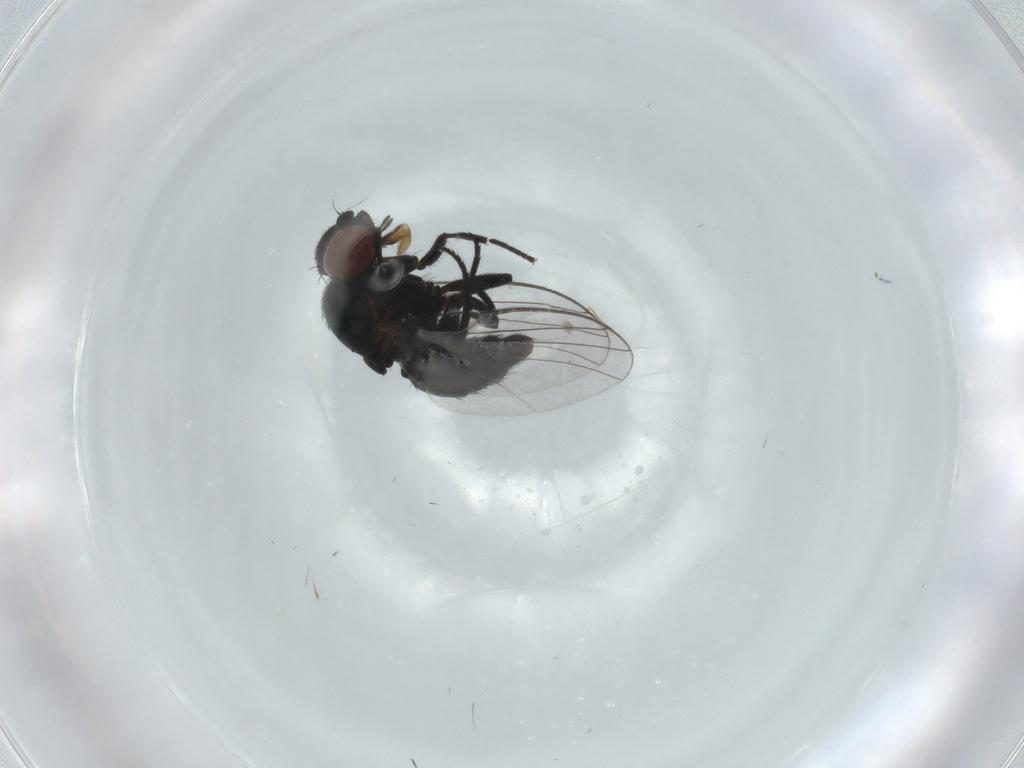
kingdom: Animalia
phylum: Arthropoda
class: Insecta
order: Diptera
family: Agromyzidae
